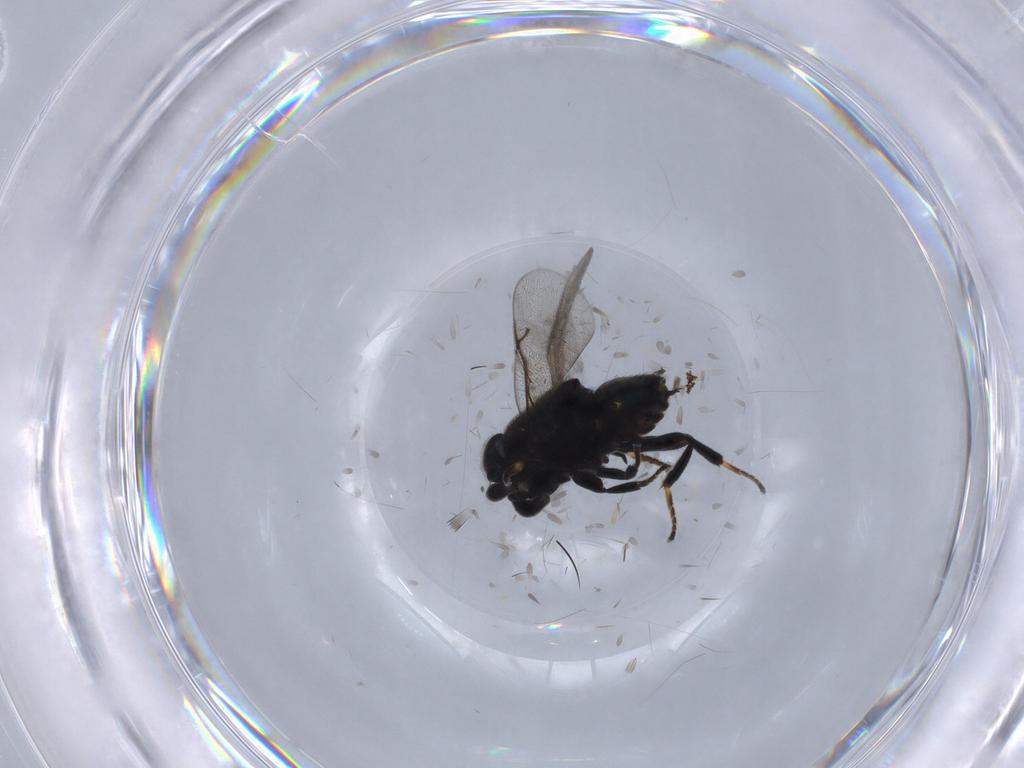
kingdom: Animalia
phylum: Arthropoda
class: Insecta
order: Hymenoptera
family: Encyrtidae
